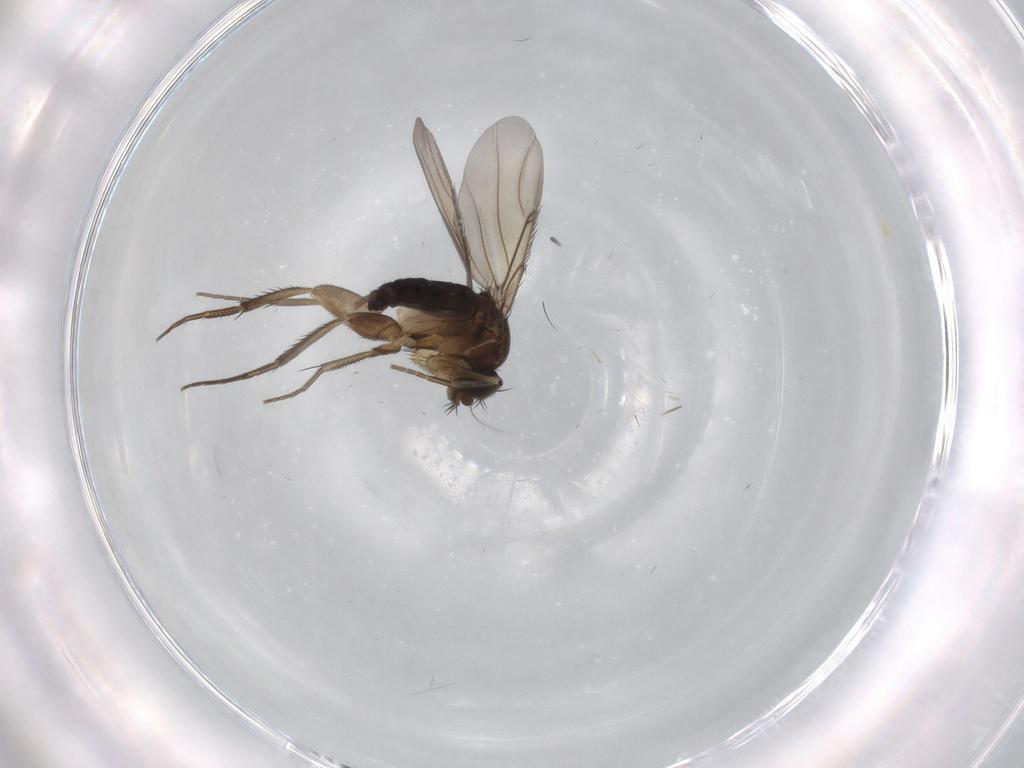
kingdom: Animalia
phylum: Arthropoda
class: Insecta
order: Diptera
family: Phoridae
